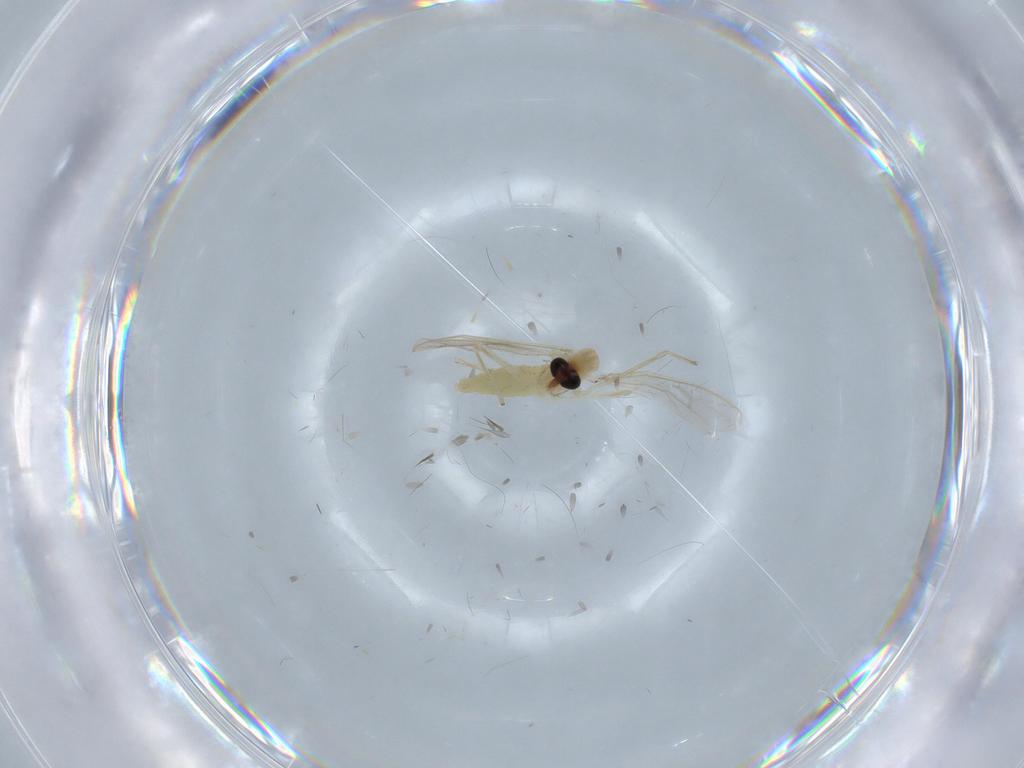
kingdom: Animalia
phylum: Arthropoda
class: Insecta
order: Diptera
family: Chironomidae
